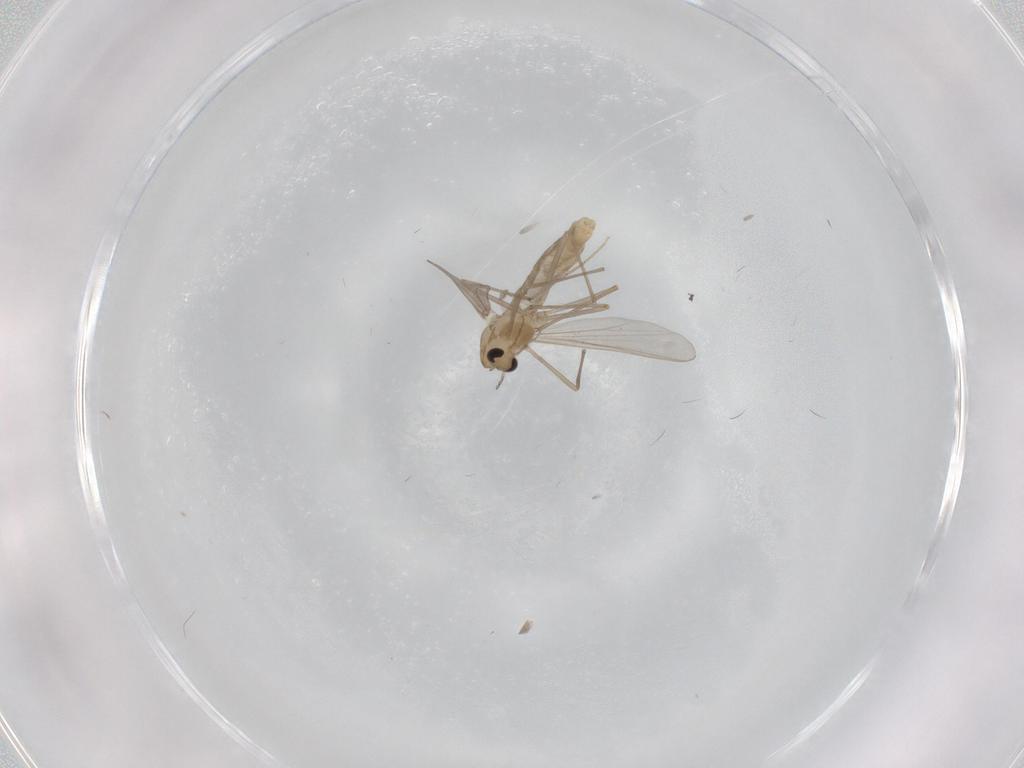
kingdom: Animalia
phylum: Arthropoda
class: Insecta
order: Diptera
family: Chironomidae
